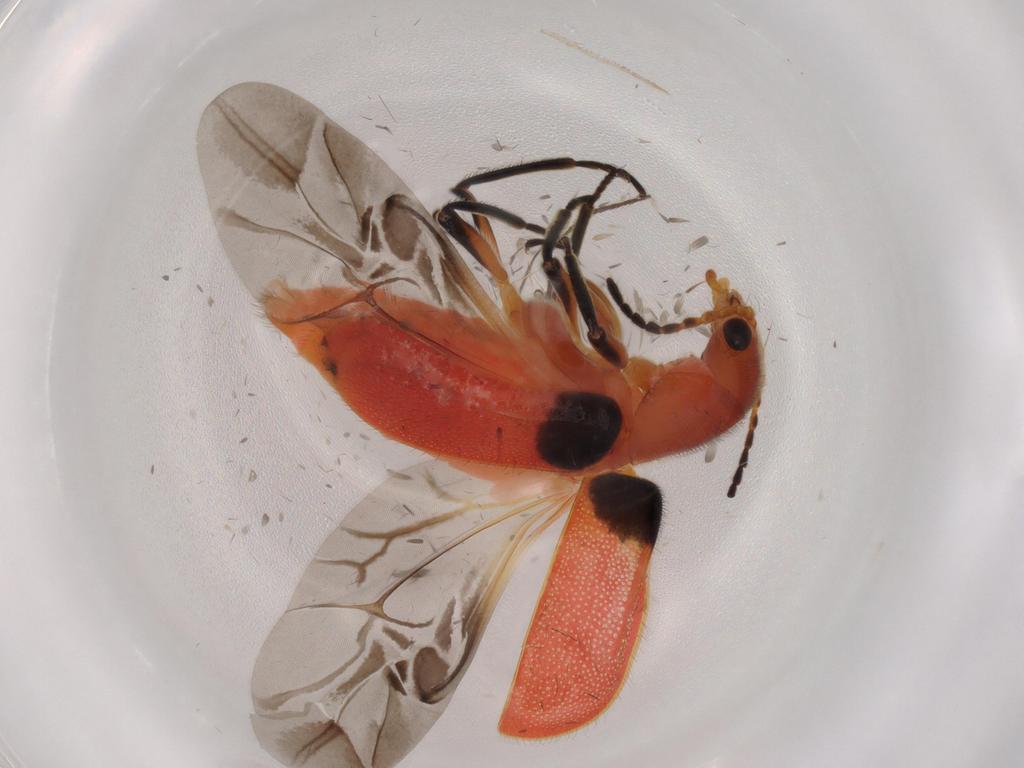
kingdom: Animalia
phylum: Arthropoda
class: Insecta
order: Coleoptera
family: Melyridae
